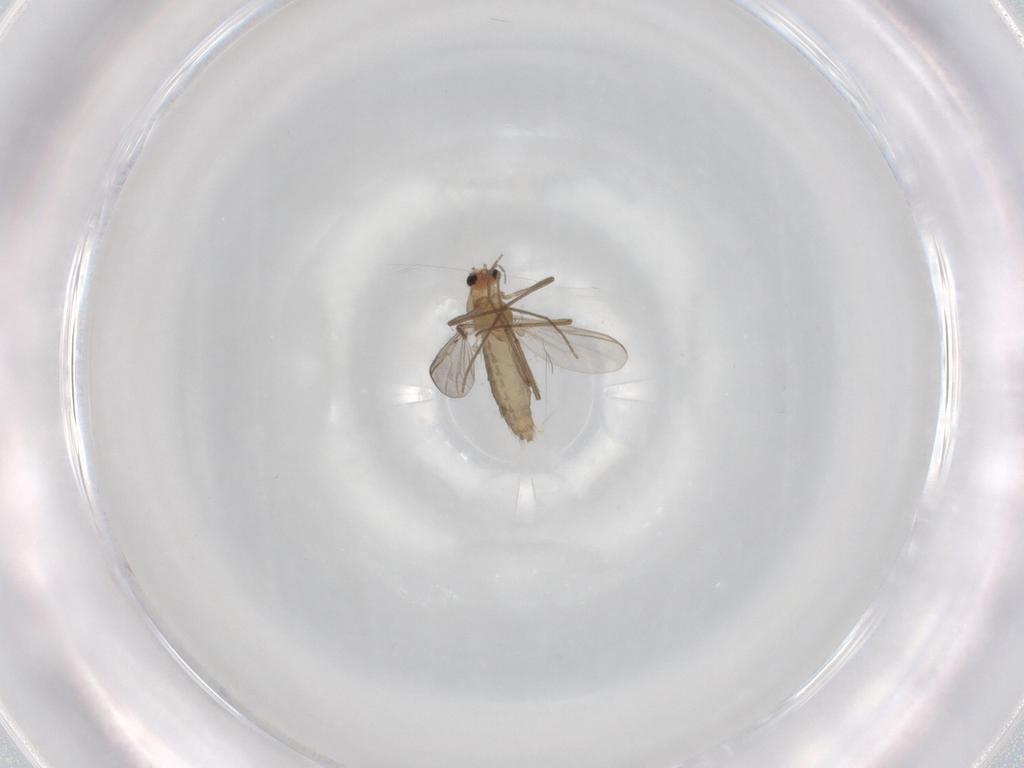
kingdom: Animalia
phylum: Arthropoda
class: Insecta
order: Diptera
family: Chironomidae
